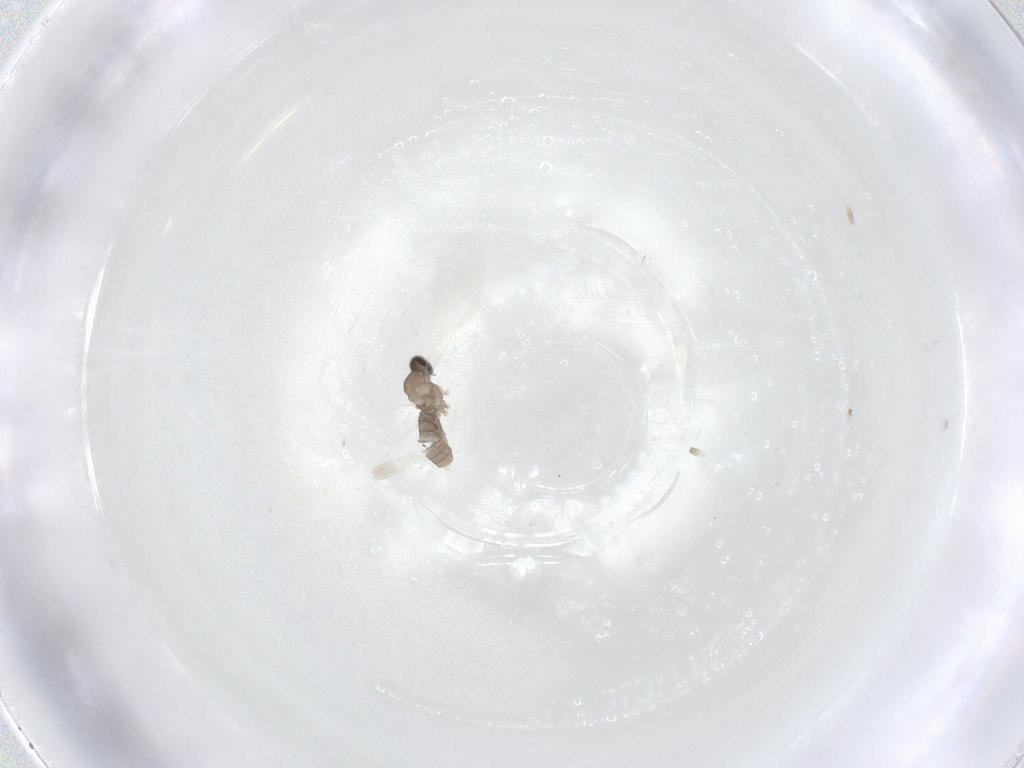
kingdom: Animalia
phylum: Arthropoda
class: Insecta
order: Diptera
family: Cecidomyiidae
